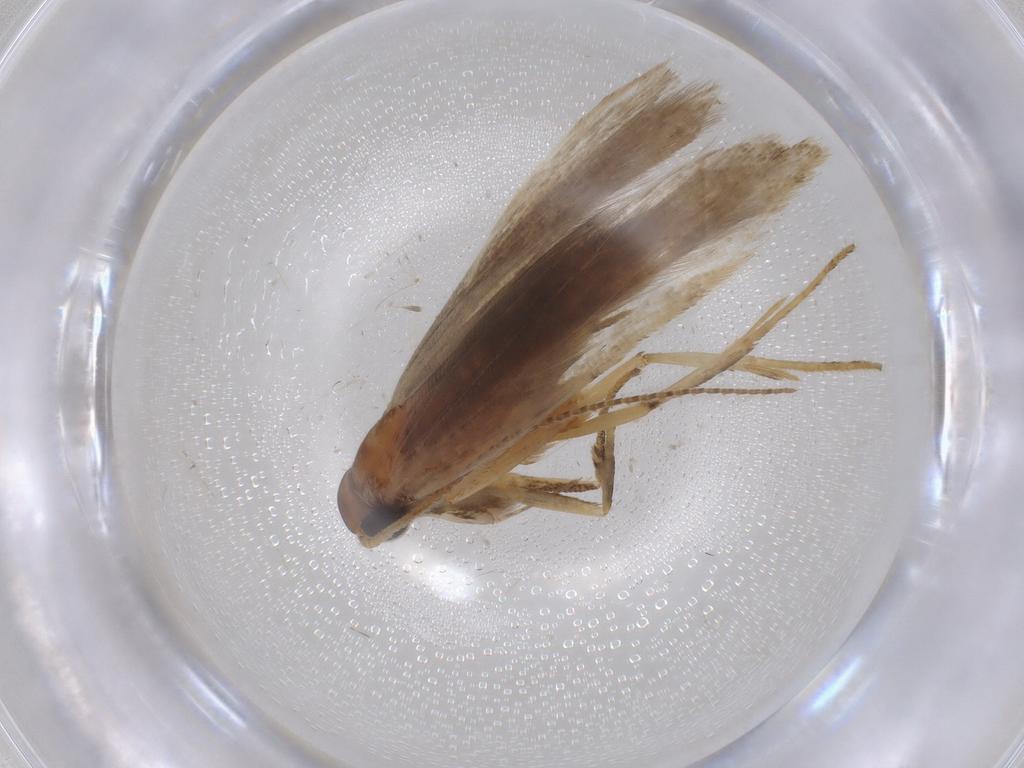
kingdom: Animalia
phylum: Arthropoda
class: Insecta
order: Lepidoptera
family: Gelechiidae
